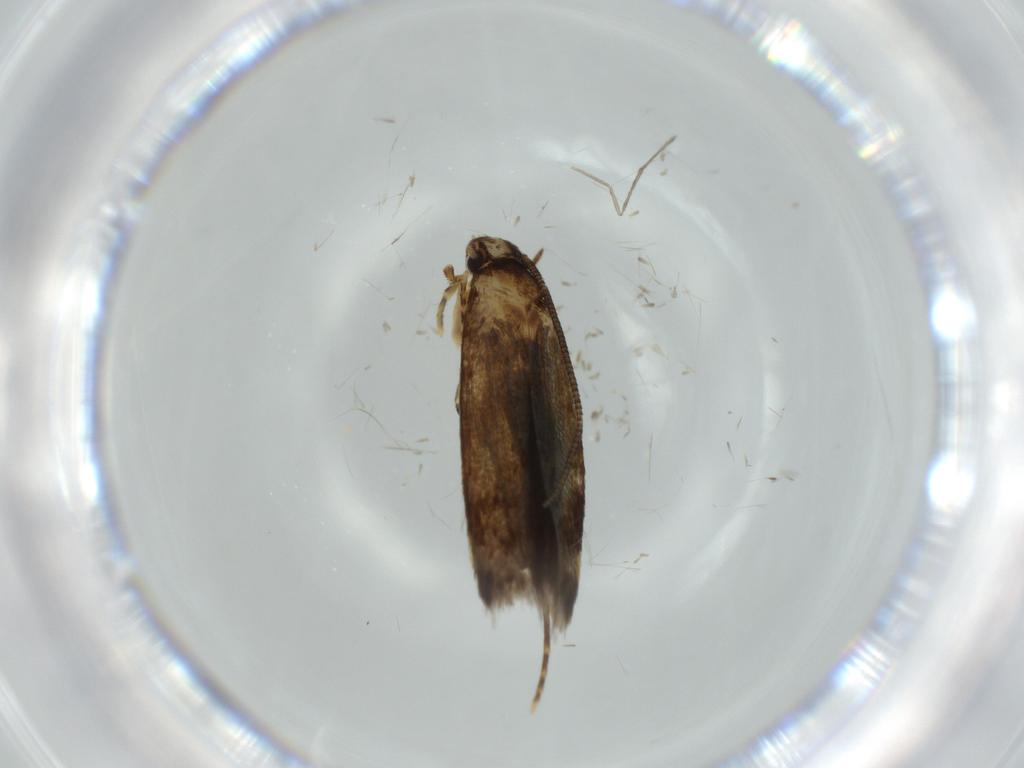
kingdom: Animalia
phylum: Arthropoda
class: Insecta
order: Lepidoptera
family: Tineidae
